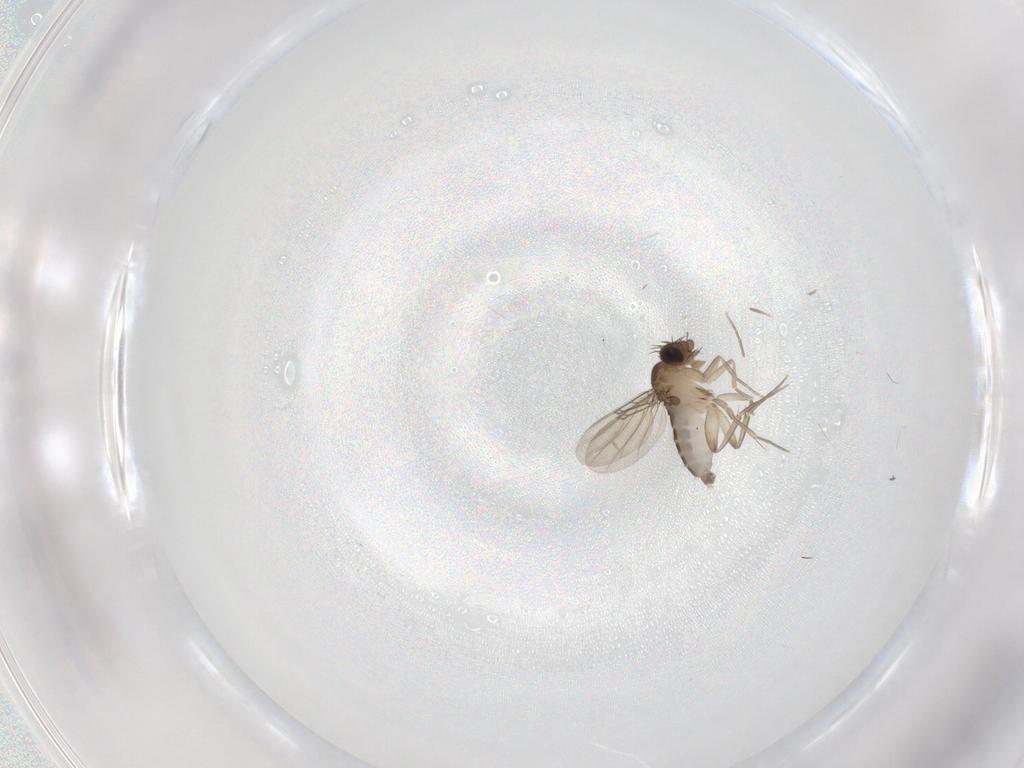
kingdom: Animalia
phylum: Arthropoda
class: Insecta
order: Diptera
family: Phoridae
